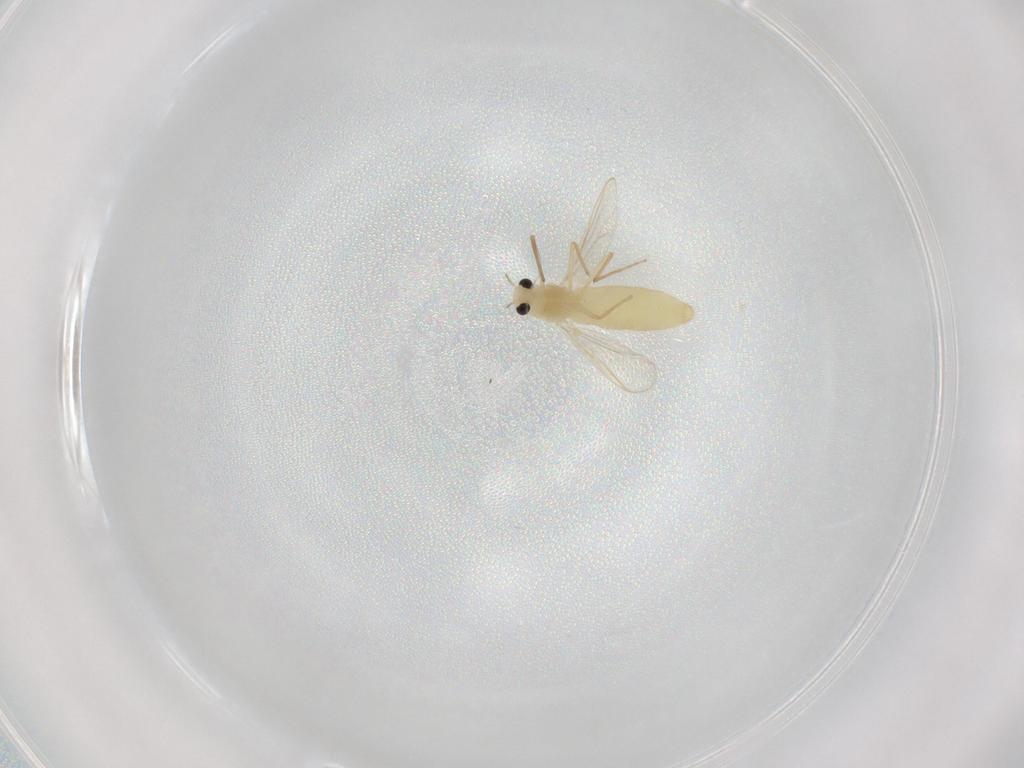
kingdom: Animalia
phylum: Arthropoda
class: Insecta
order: Diptera
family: Chironomidae
